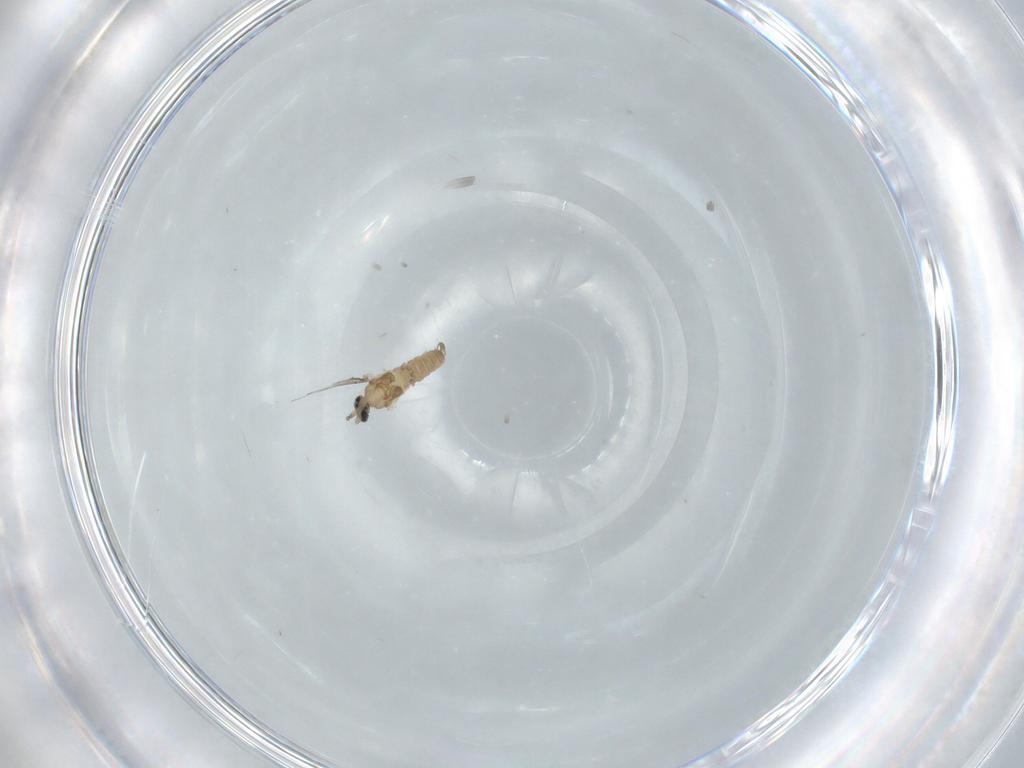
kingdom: Animalia
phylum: Arthropoda
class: Insecta
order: Diptera
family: Cecidomyiidae
